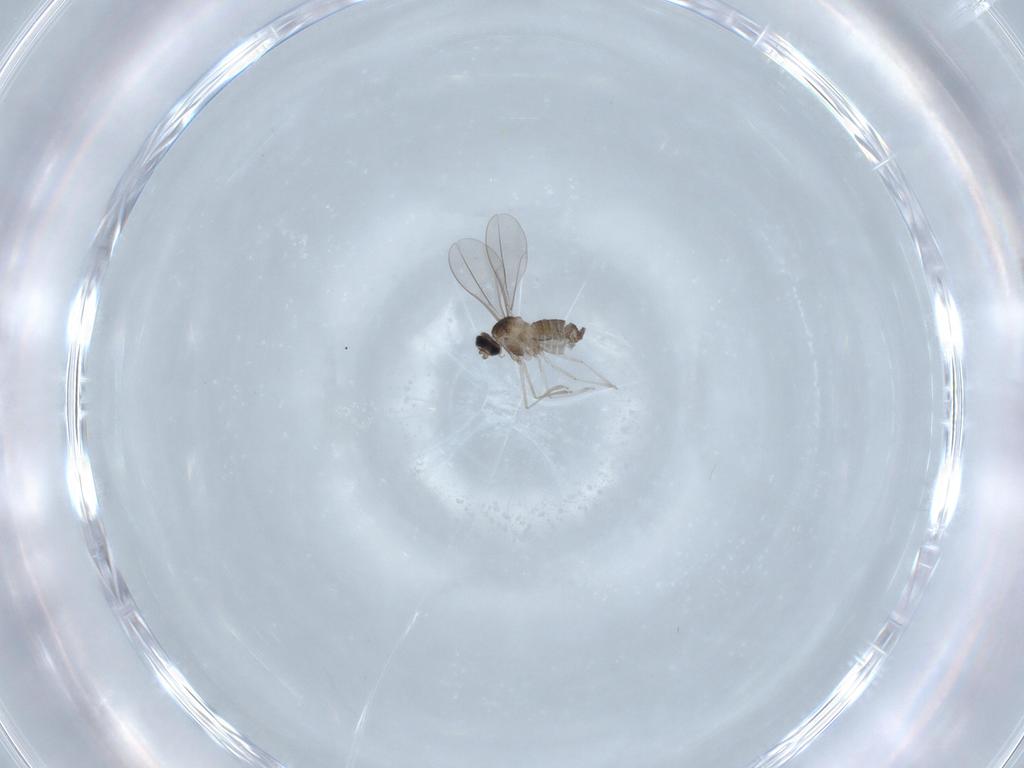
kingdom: Animalia
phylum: Arthropoda
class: Insecta
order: Diptera
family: Cecidomyiidae
